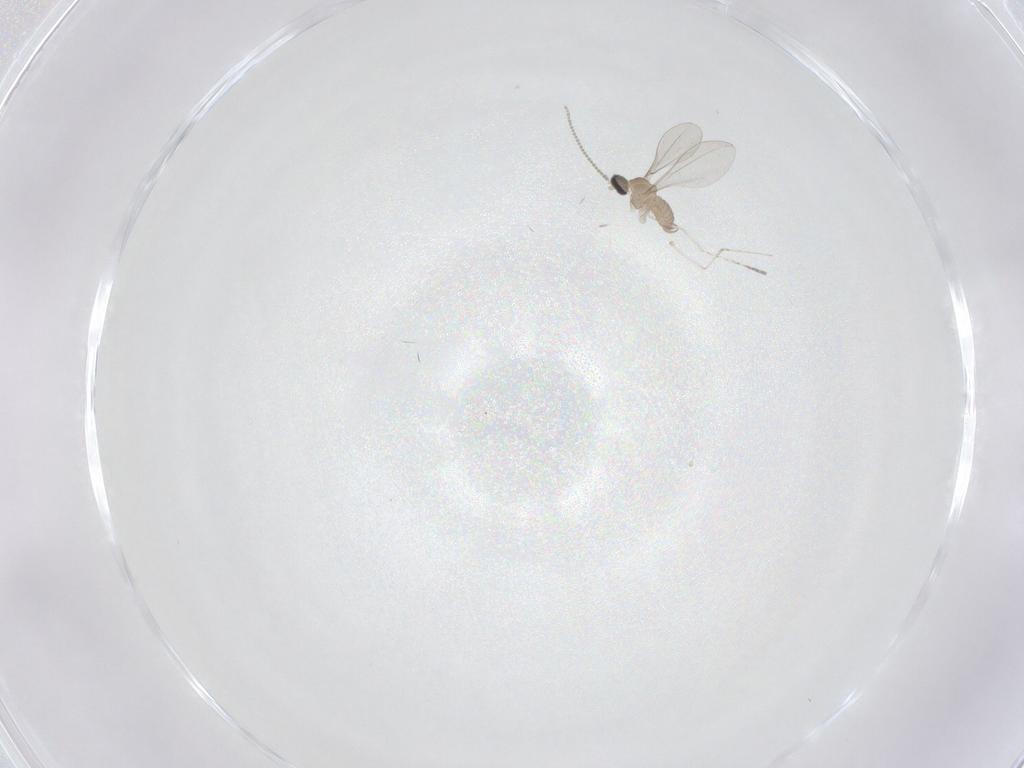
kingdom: Animalia
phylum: Arthropoda
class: Insecta
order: Diptera
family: Cecidomyiidae
